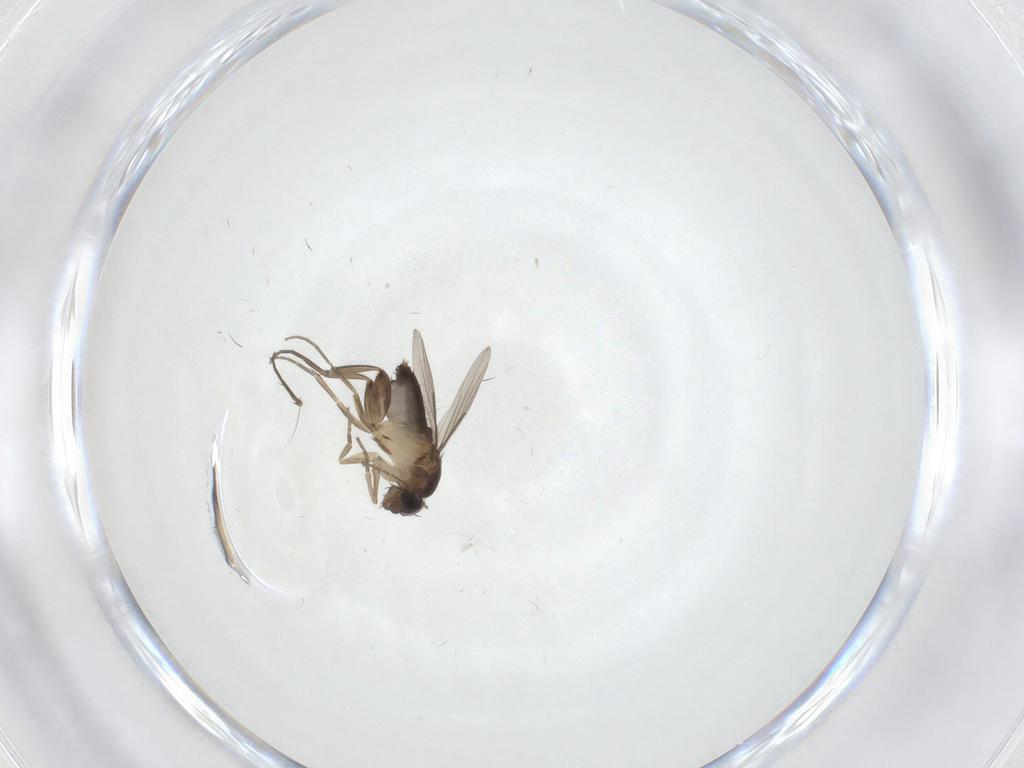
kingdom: Animalia
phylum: Arthropoda
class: Insecta
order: Diptera
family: Phoridae
